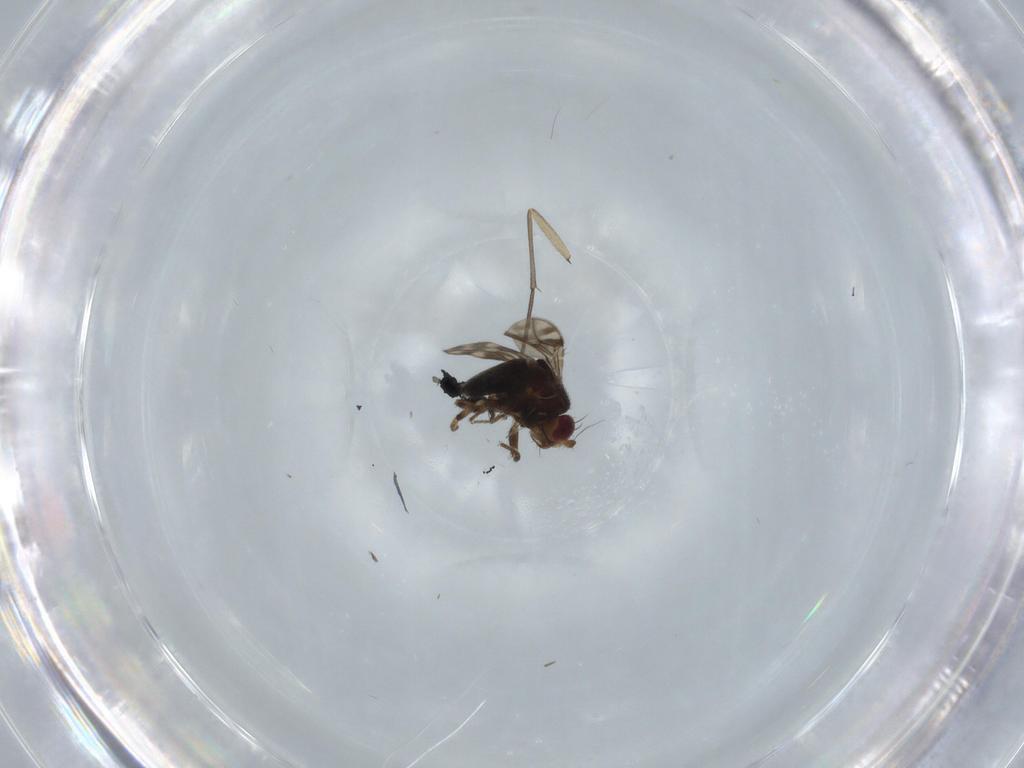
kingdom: Animalia
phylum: Arthropoda
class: Insecta
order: Diptera
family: Sphaeroceridae
